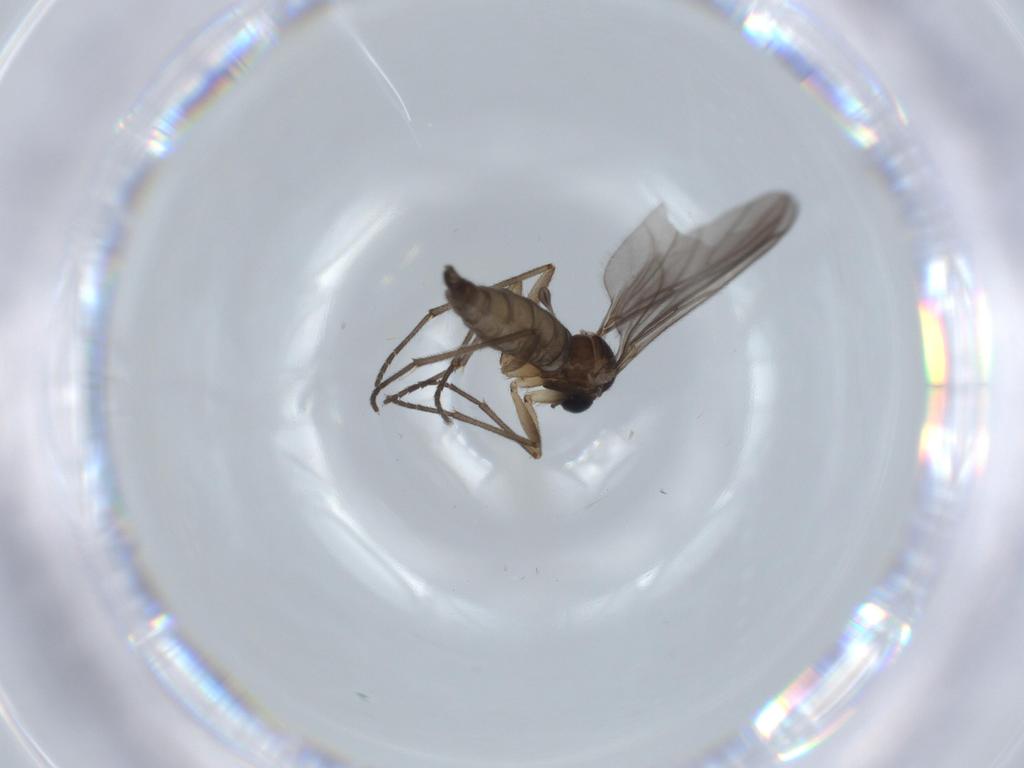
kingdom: Animalia
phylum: Arthropoda
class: Insecta
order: Diptera
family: Sciaridae
